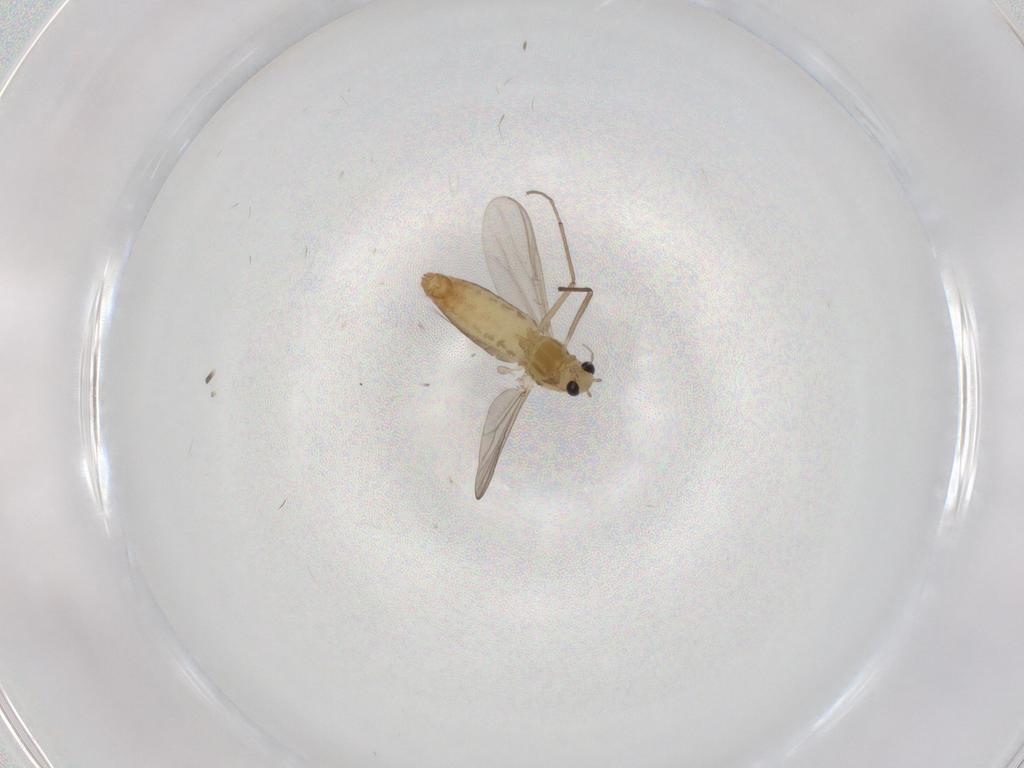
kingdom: Animalia
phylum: Arthropoda
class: Insecta
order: Diptera
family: Chironomidae
